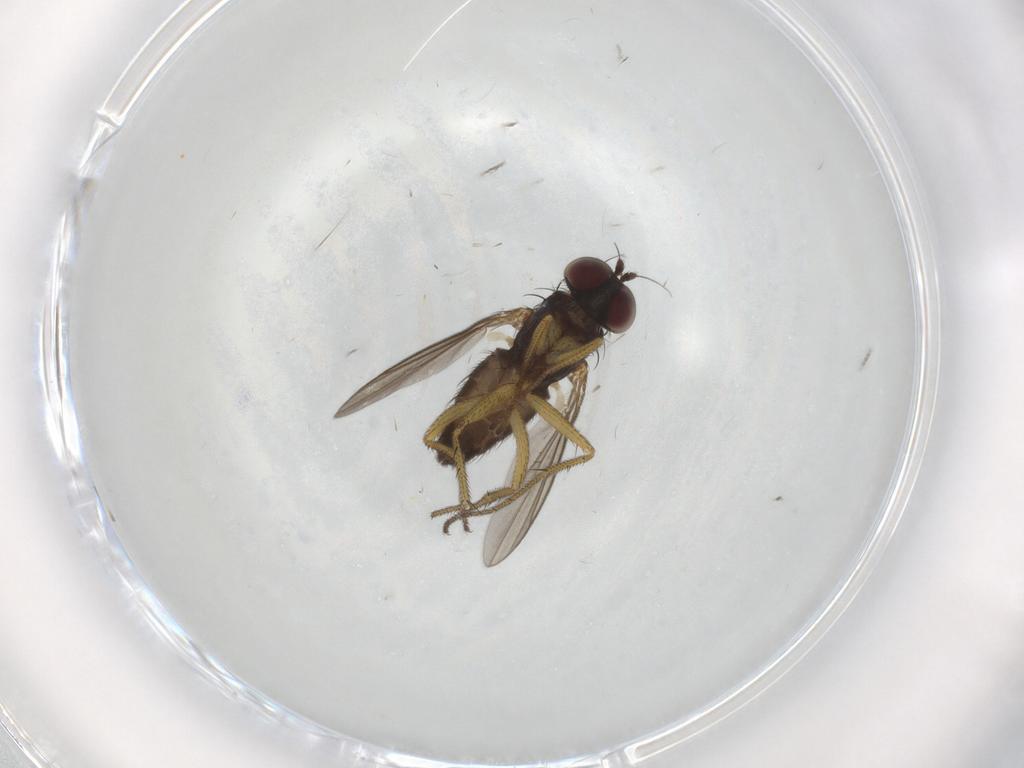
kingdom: Animalia
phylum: Arthropoda
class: Insecta
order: Diptera
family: Dolichopodidae
